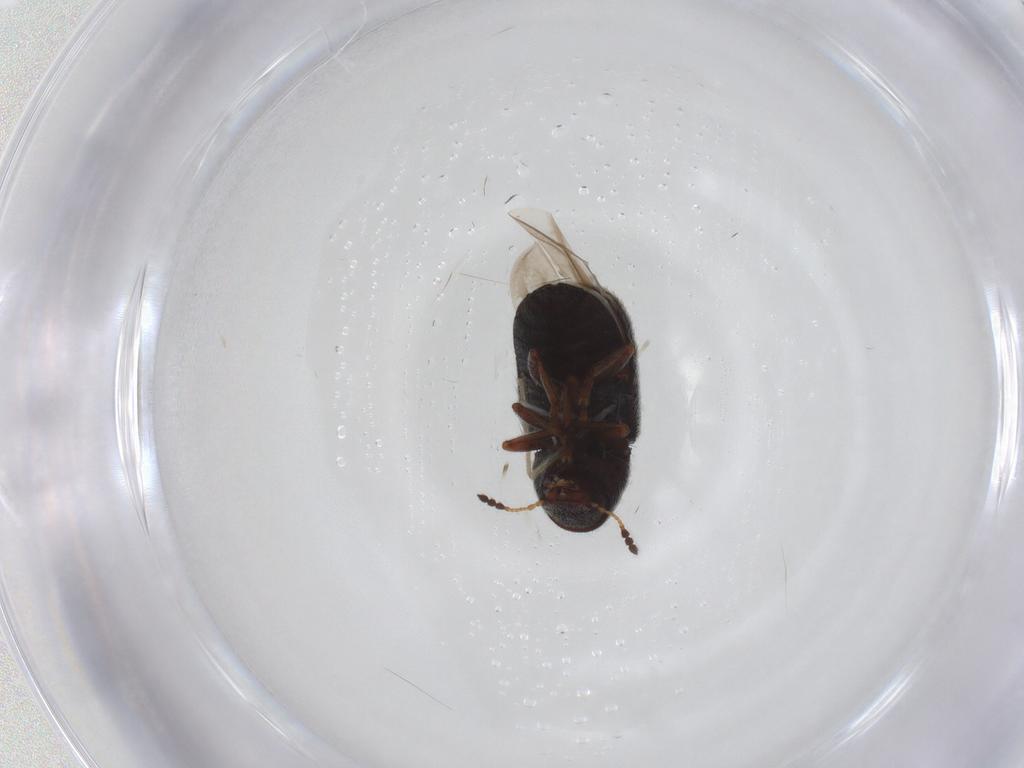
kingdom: Animalia
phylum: Arthropoda
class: Insecta
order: Coleoptera
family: Anthribidae
